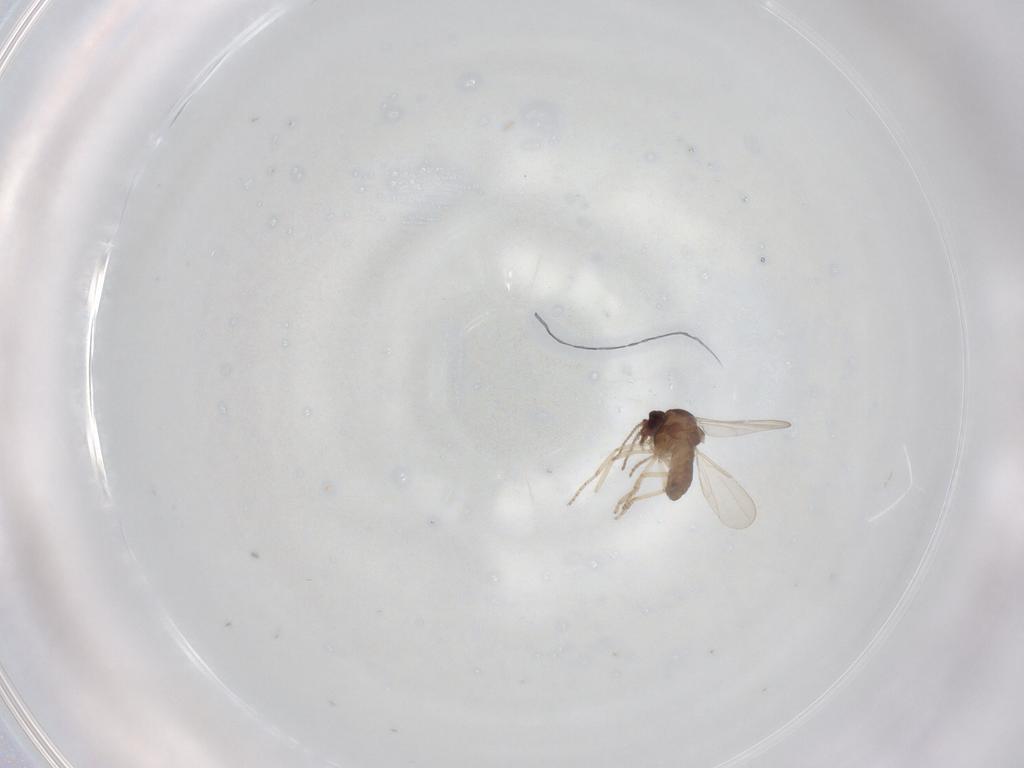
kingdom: Animalia
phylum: Arthropoda
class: Insecta
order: Diptera
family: Ceratopogonidae
